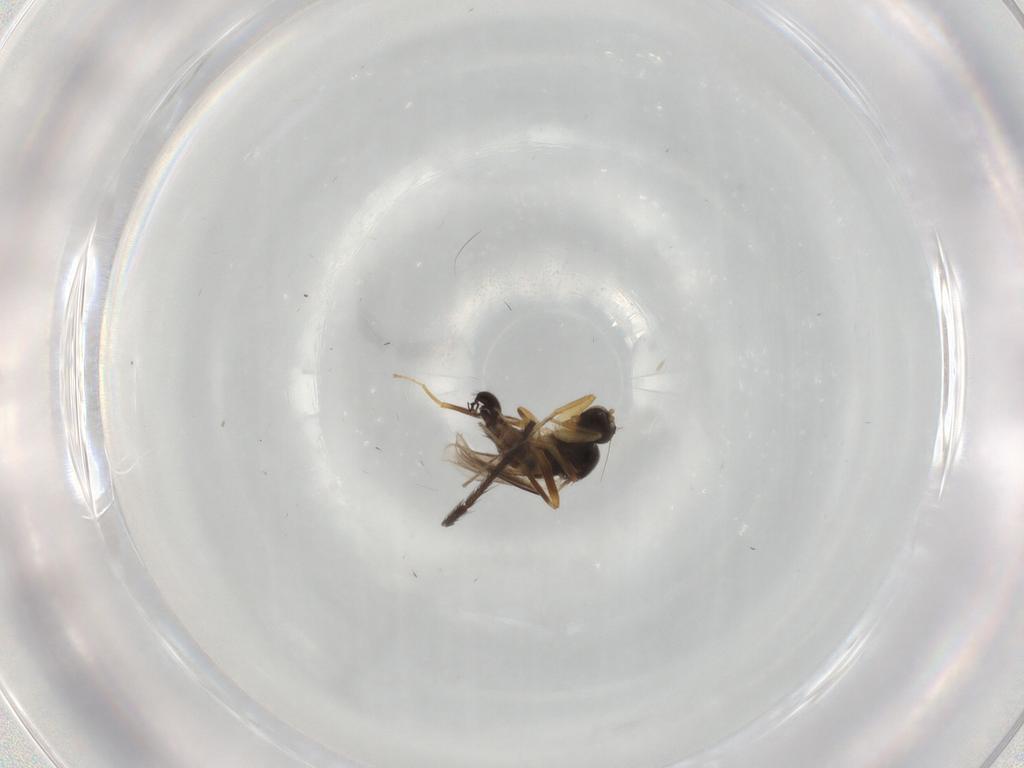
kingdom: Animalia
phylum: Arthropoda
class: Insecta
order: Diptera
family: Hybotidae
